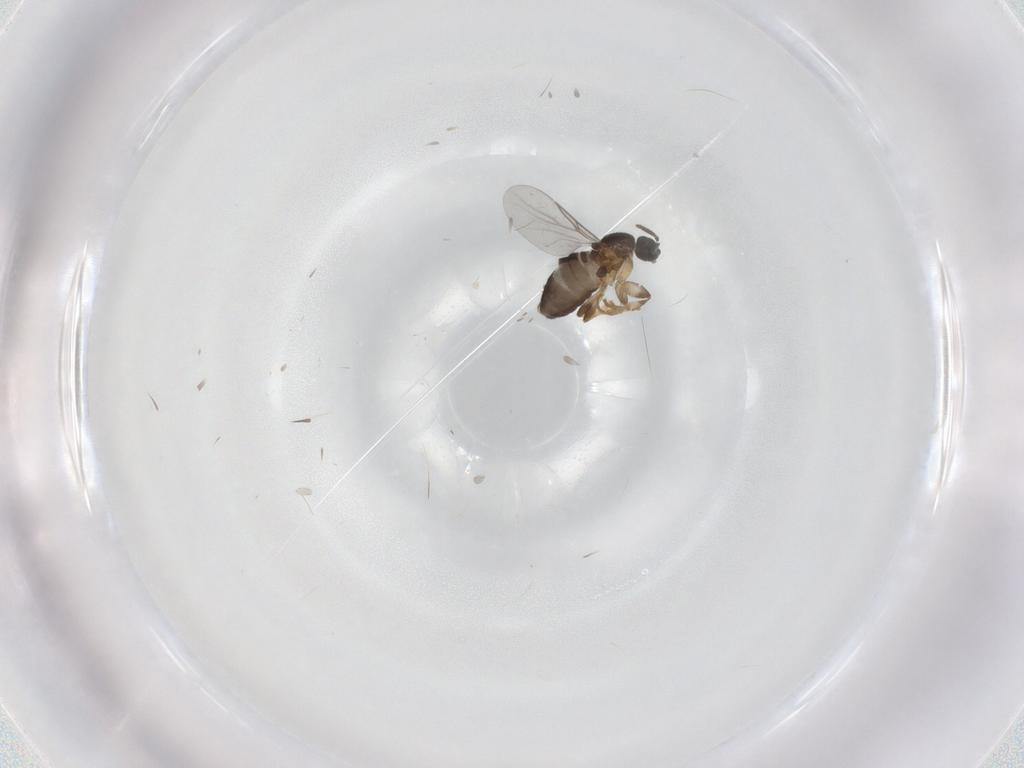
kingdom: Animalia
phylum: Arthropoda
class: Insecta
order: Diptera
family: Scatopsidae
